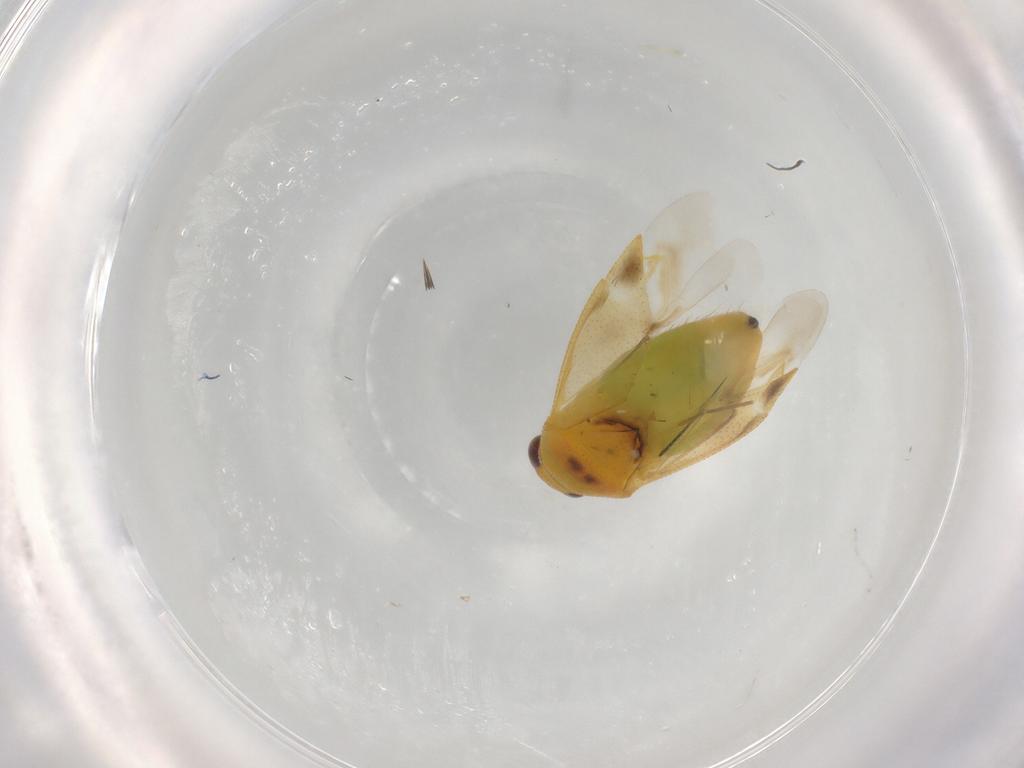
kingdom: Animalia
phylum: Arthropoda
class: Insecta
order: Hemiptera
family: Miridae
